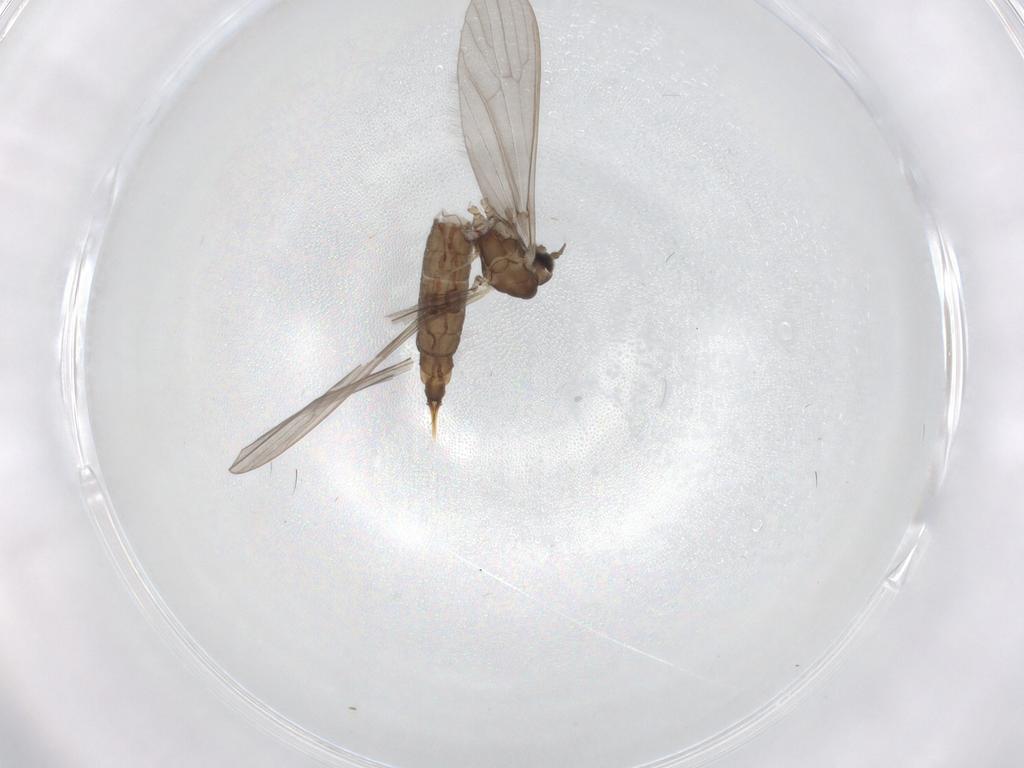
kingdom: Animalia
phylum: Arthropoda
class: Insecta
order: Diptera
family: Limoniidae
